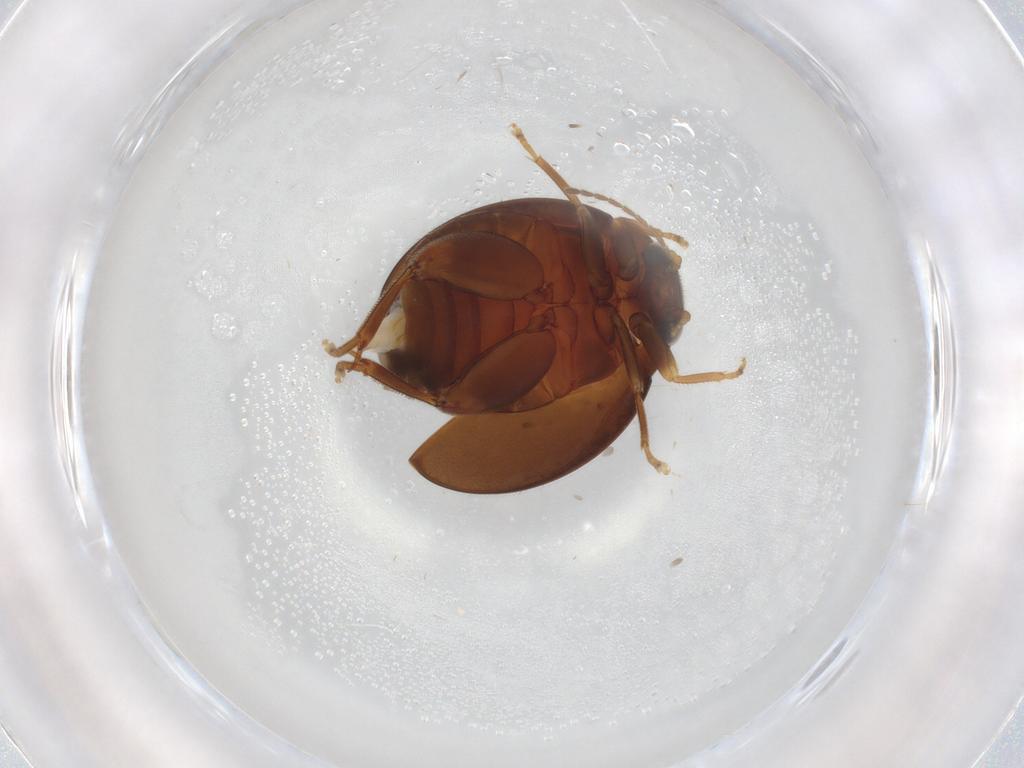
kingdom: Animalia
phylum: Arthropoda
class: Insecta
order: Coleoptera
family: Scirtidae
